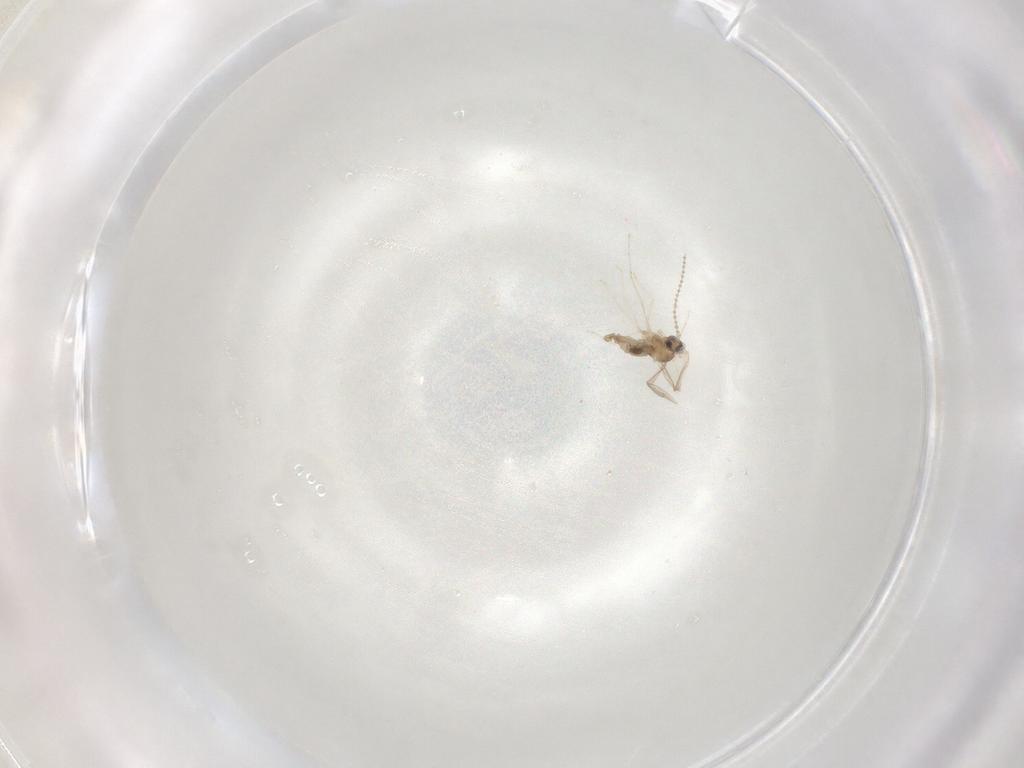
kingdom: Animalia
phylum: Arthropoda
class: Insecta
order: Diptera
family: Cecidomyiidae
